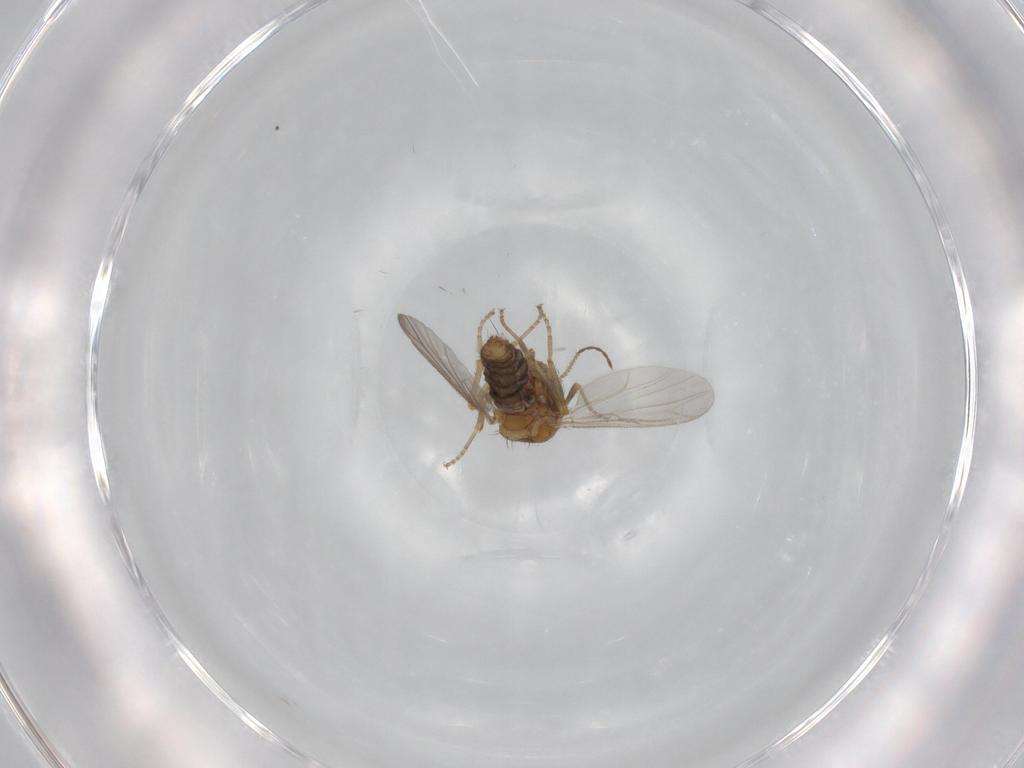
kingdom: Animalia
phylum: Arthropoda
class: Insecta
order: Diptera
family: Ceratopogonidae
